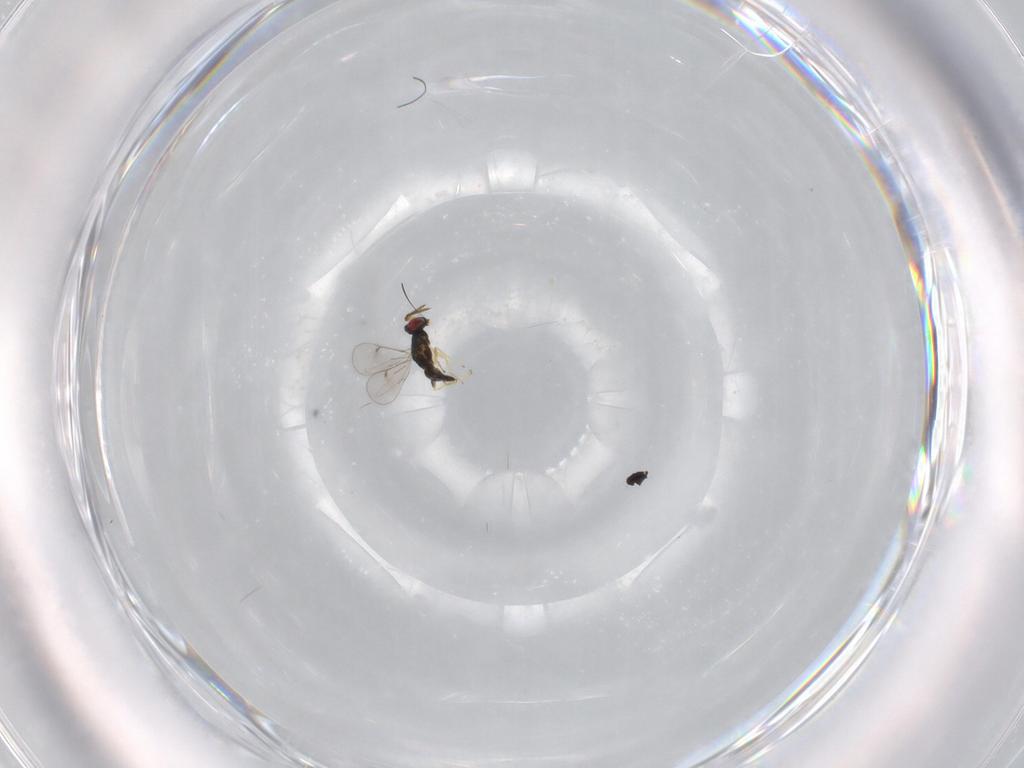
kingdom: Animalia
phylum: Arthropoda
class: Insecta
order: Hymenoptera
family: Eulophidae
